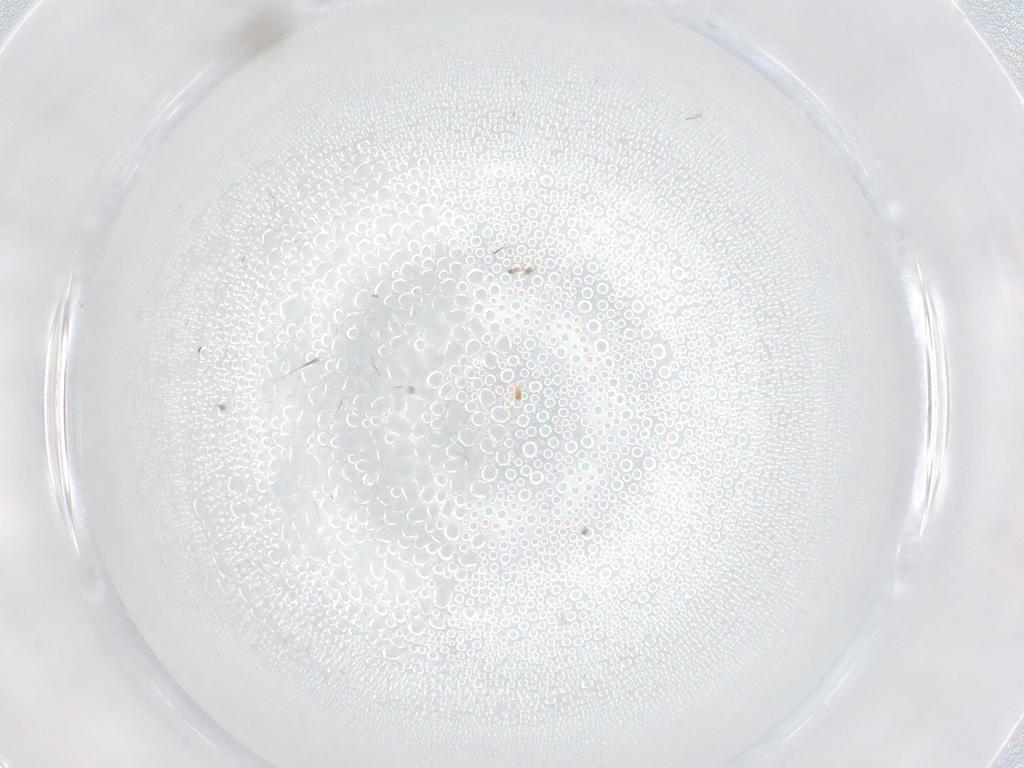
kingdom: Animalia
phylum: Arthropoda
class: Insecta
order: Diptera
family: Cecidomyiidae
